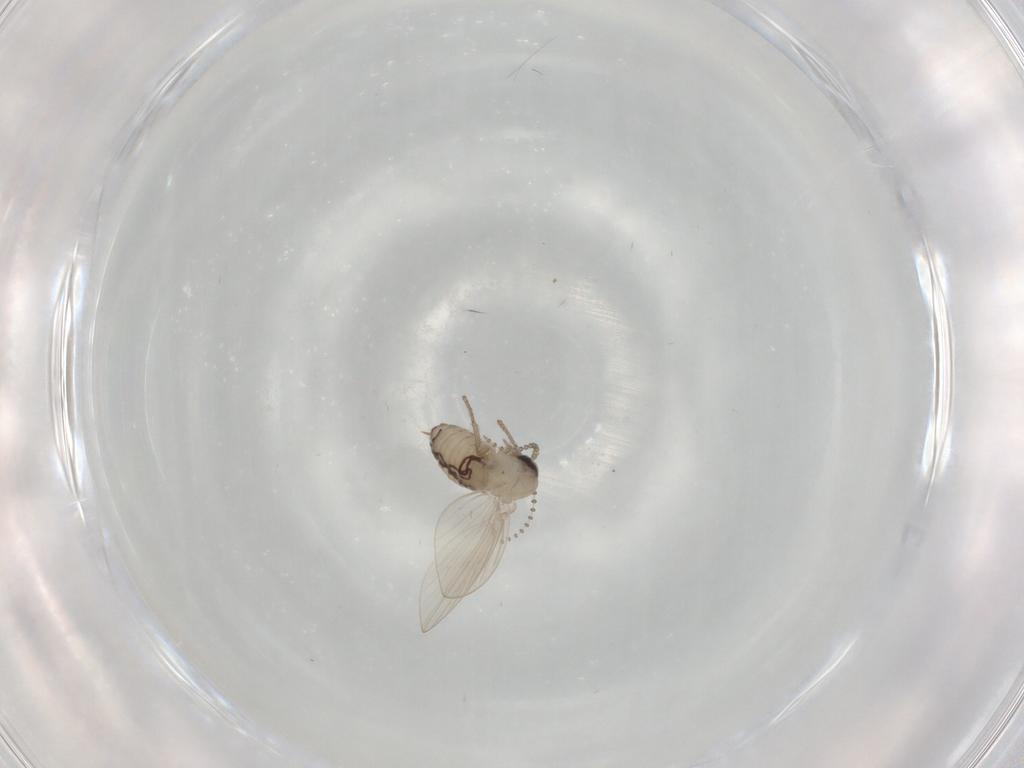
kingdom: Animalia
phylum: Arthropoda
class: Insecta
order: Diptera
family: Psychodidae
